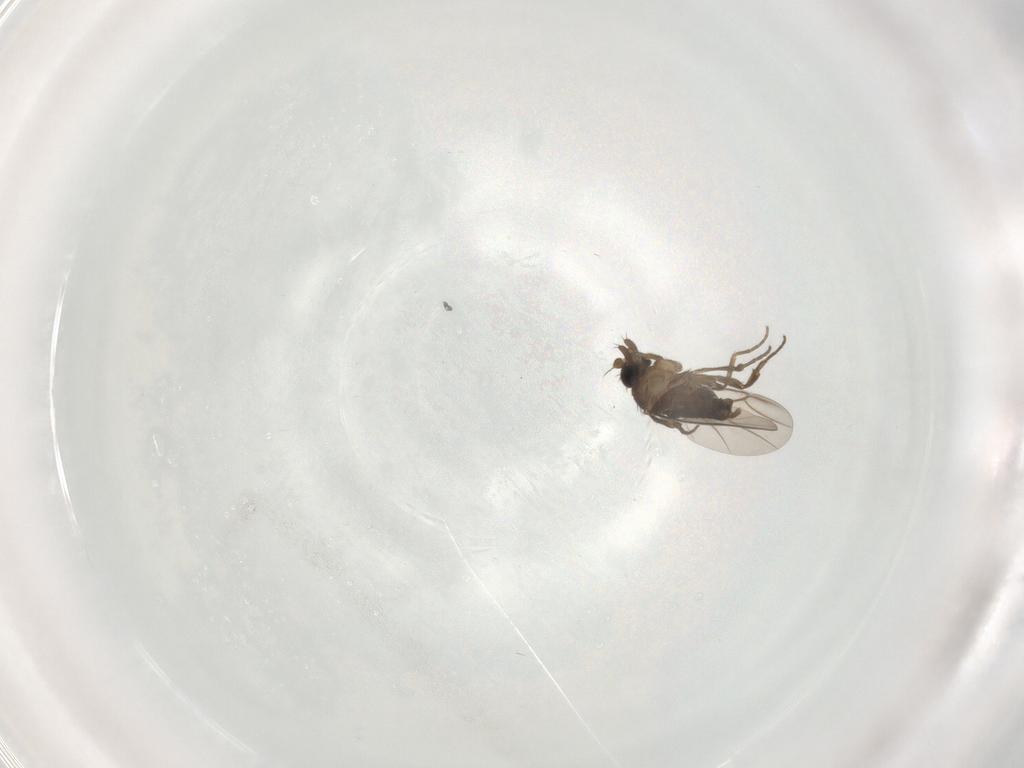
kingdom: Animalia
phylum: Arthropoda
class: Insecta
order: Diptera
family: Phoridae
